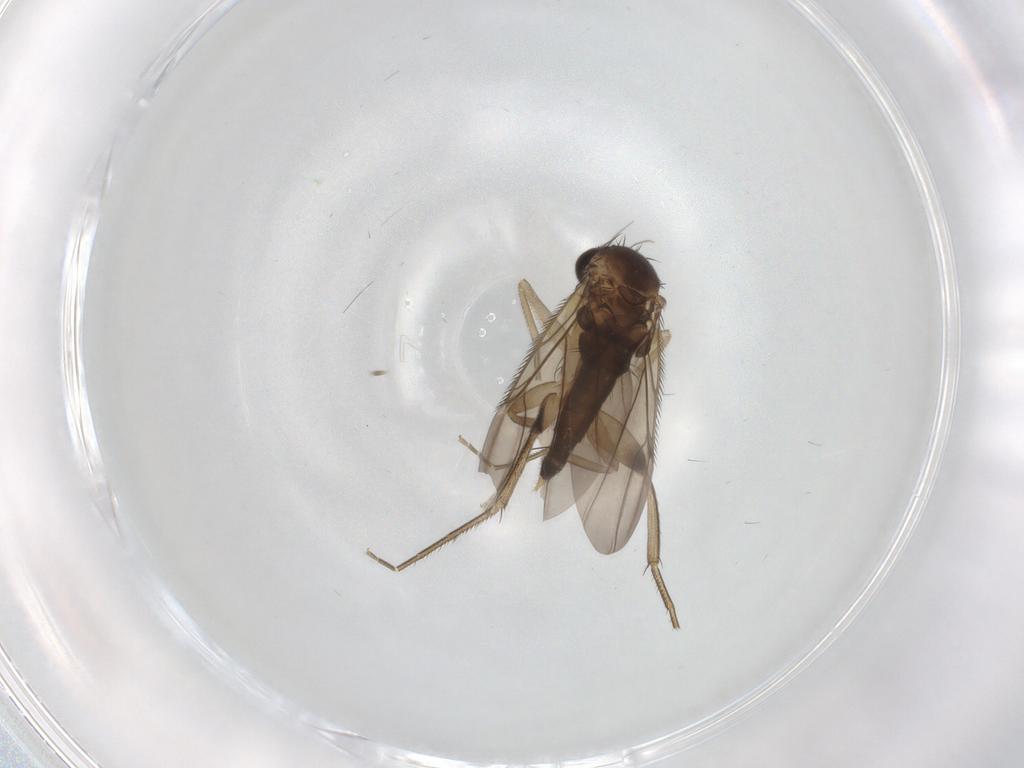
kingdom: Animalia
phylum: Arthropoda
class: Insecta
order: Diptera
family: Phoridae
